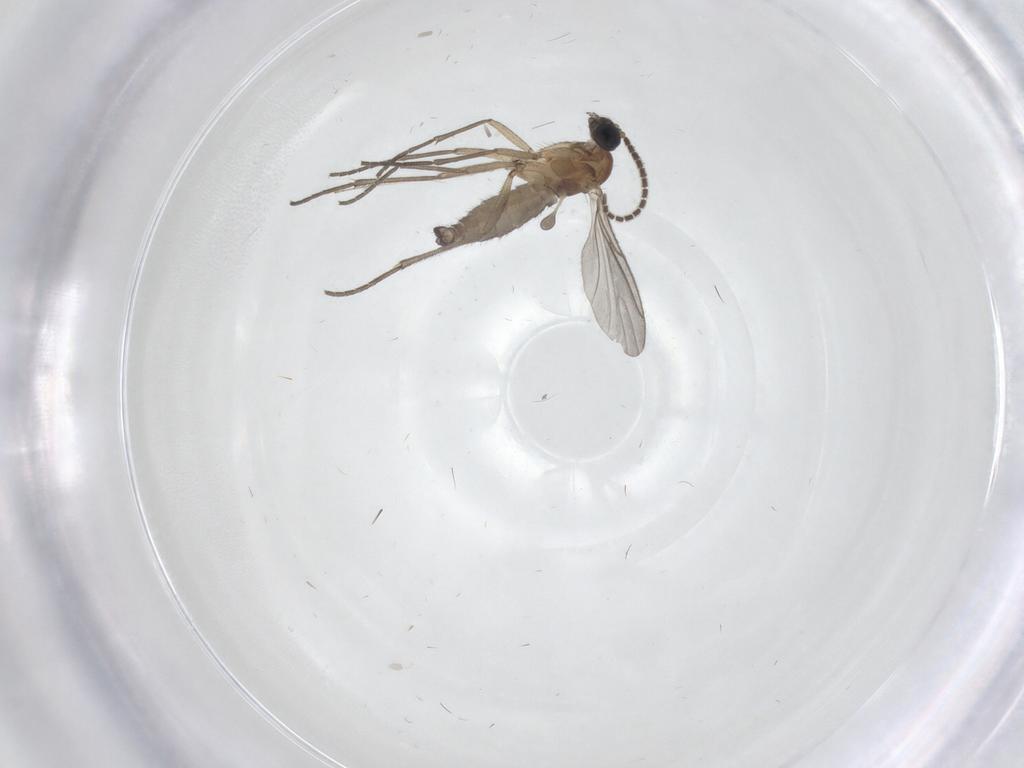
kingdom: Animalia
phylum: Arthropoda
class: Insecta
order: Diptera
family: Sciaridae
